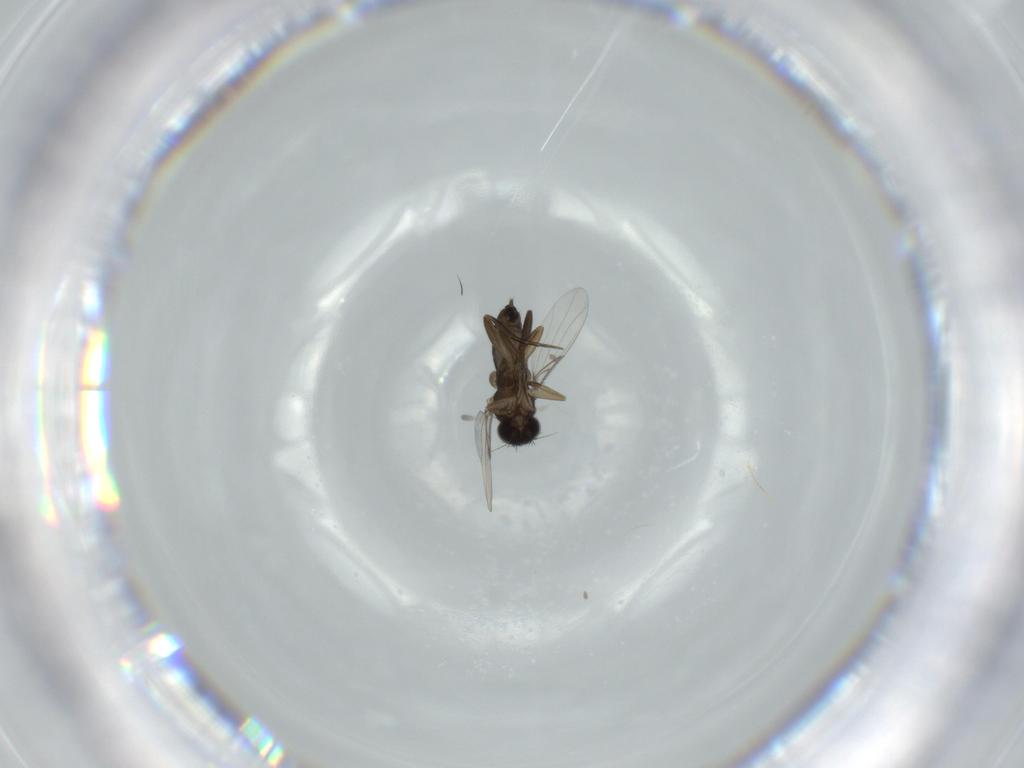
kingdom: Animalia
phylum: Arthropoda
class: Insecta
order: Diptera
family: Phoridae
